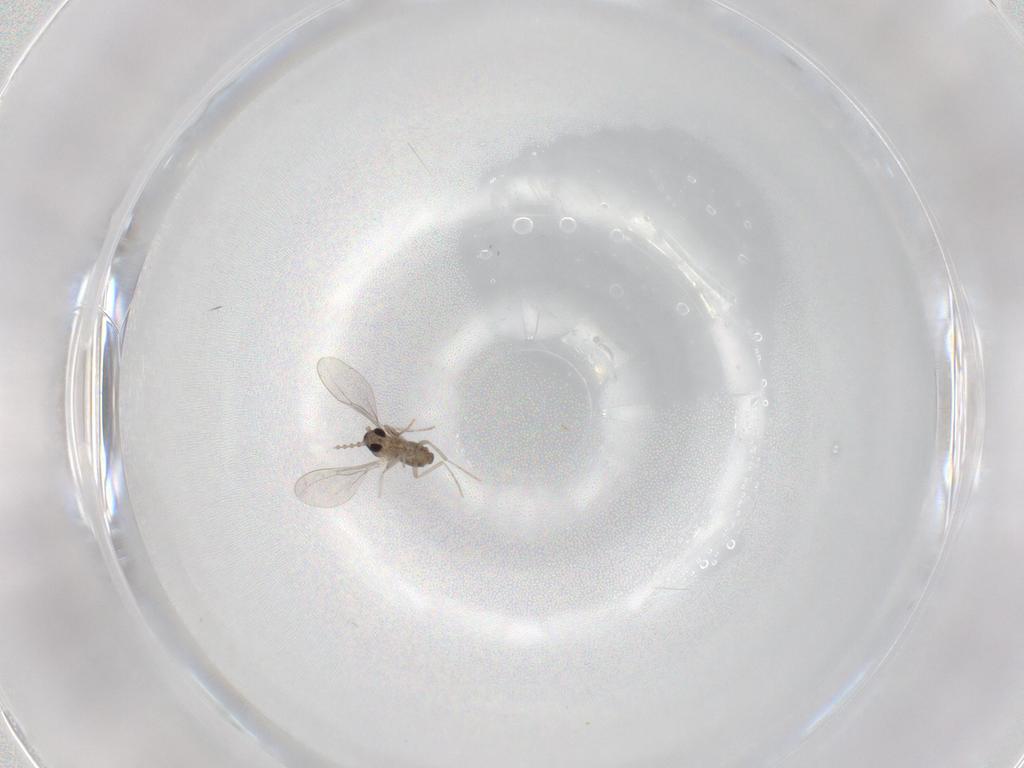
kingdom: Animalia
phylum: Arthropoda
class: Insecta
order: Diptera
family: Cecidomyiidae
